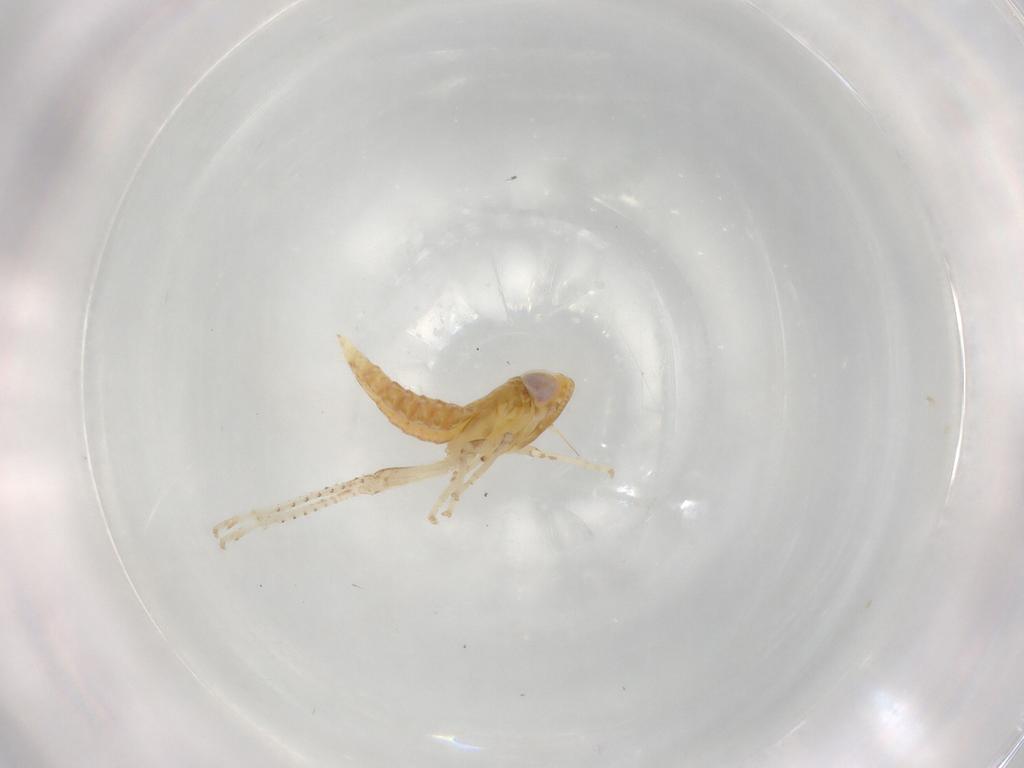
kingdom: Animalia
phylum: Arthropoda
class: Insecta
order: Hemiptera
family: Cicadellidae
